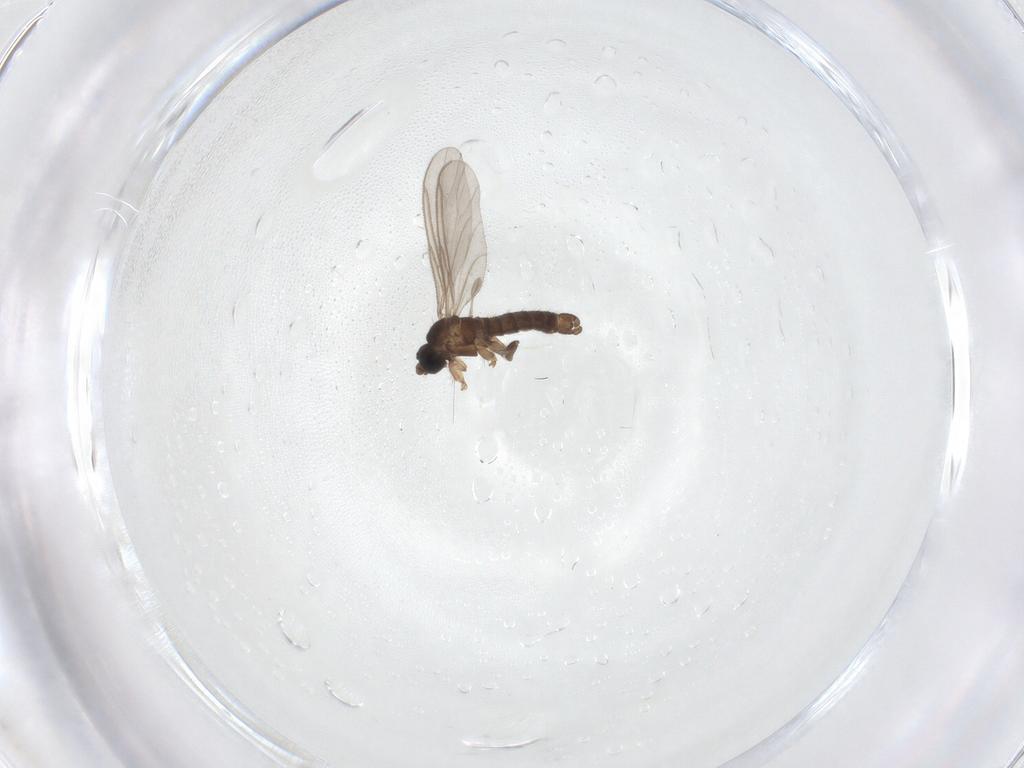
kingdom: Animalia
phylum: Arthropoda
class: Insecta
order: Diptera
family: Sciaridae
